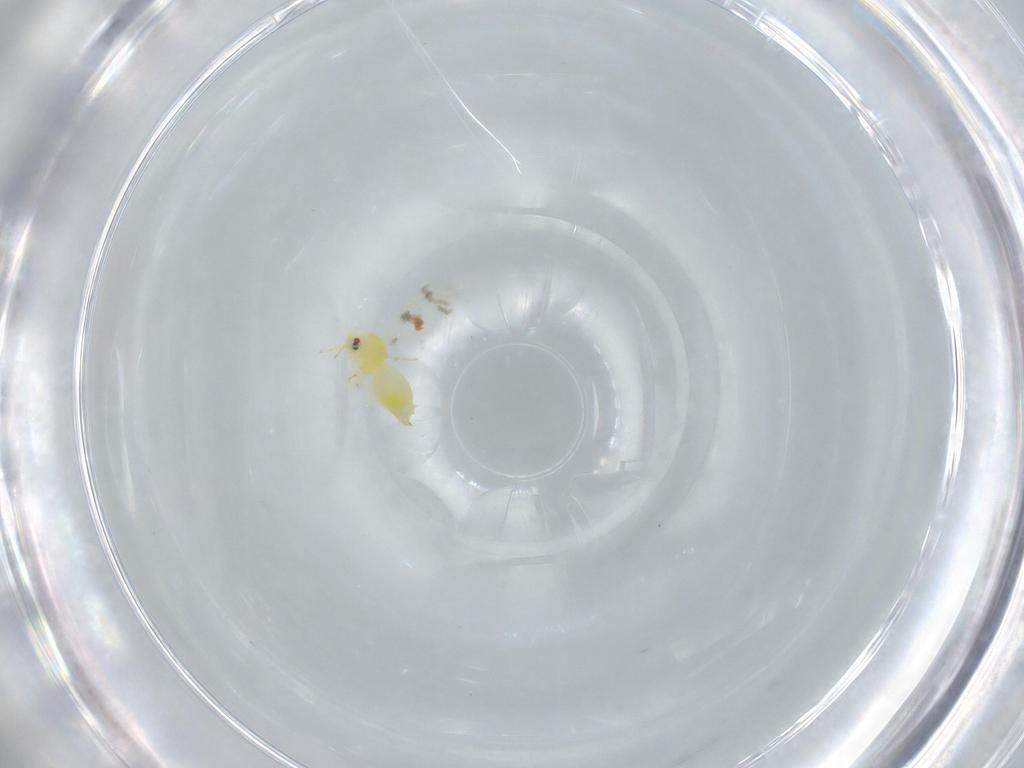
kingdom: Animalia
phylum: Arthropoda
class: Insecta
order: Hemiptera
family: Aleyrodidae
